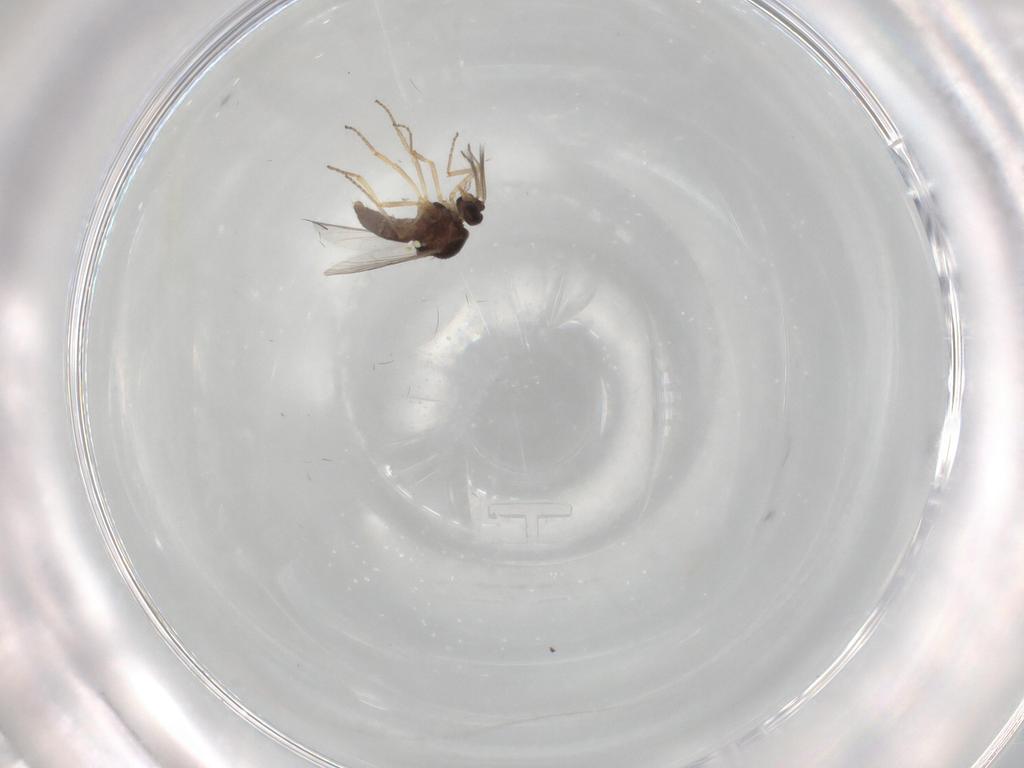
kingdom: Animalia
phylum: Arthropoda
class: Insecta
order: Diptera
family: Ceratopogonidae
